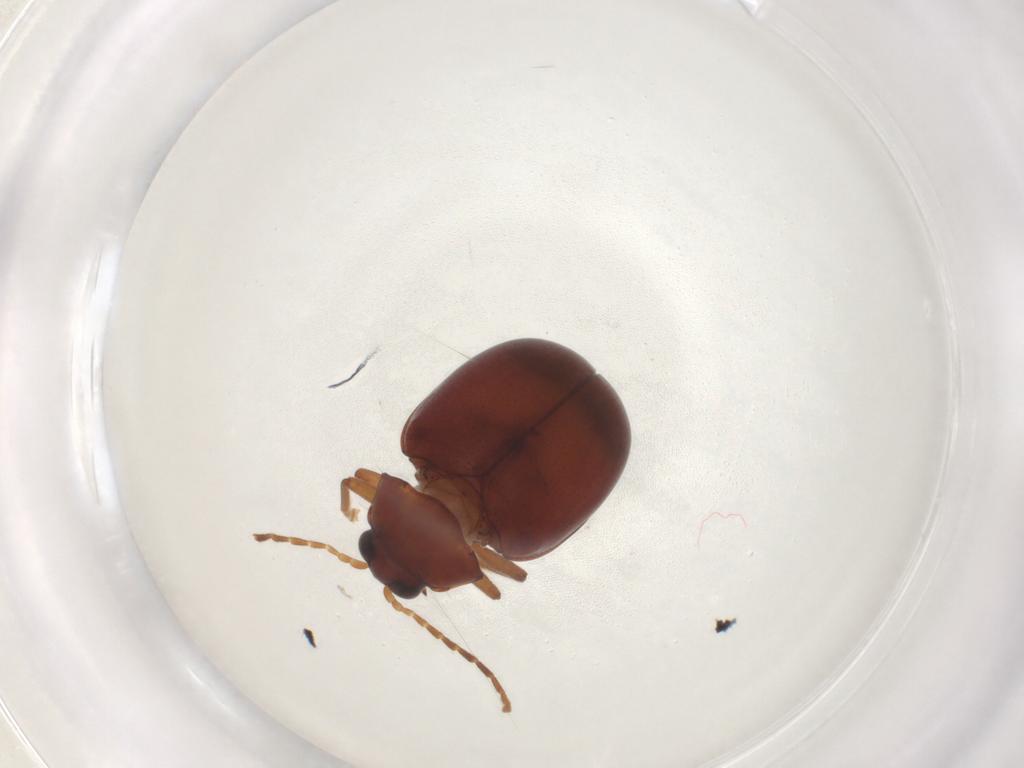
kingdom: Animalia
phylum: Arthropoda
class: Insecta
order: Coleoptera
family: Chrysomelidae
